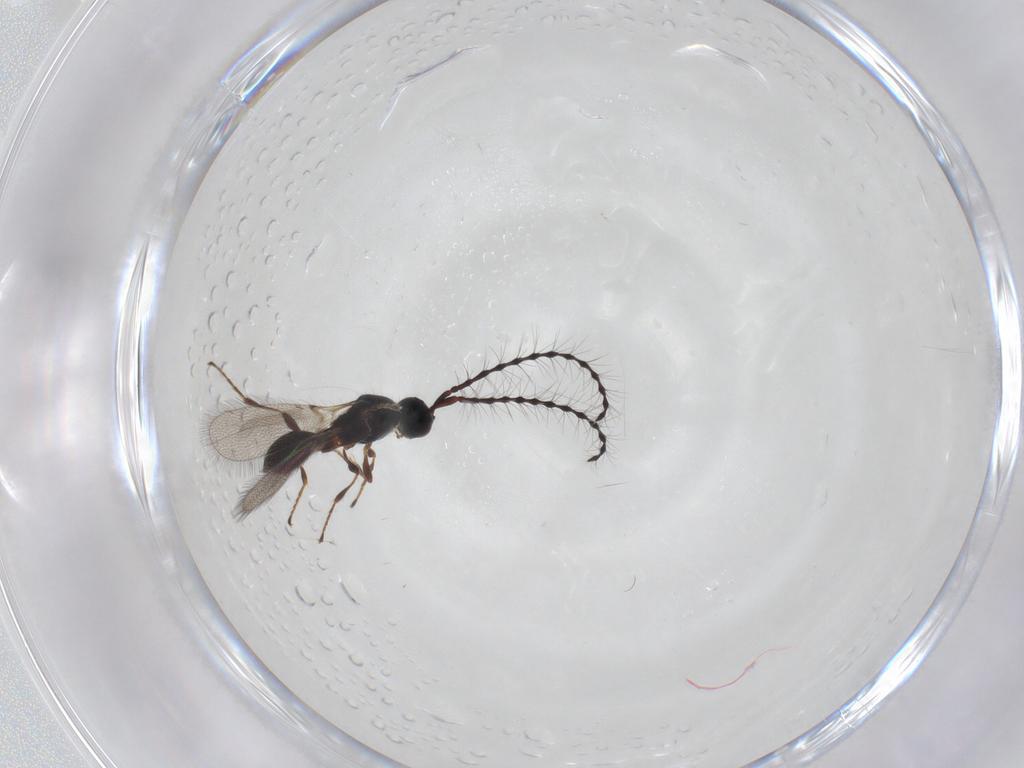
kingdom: Animalia
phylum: Arthropoda
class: Insecta
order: Hymenoptera
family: Diapriidae
